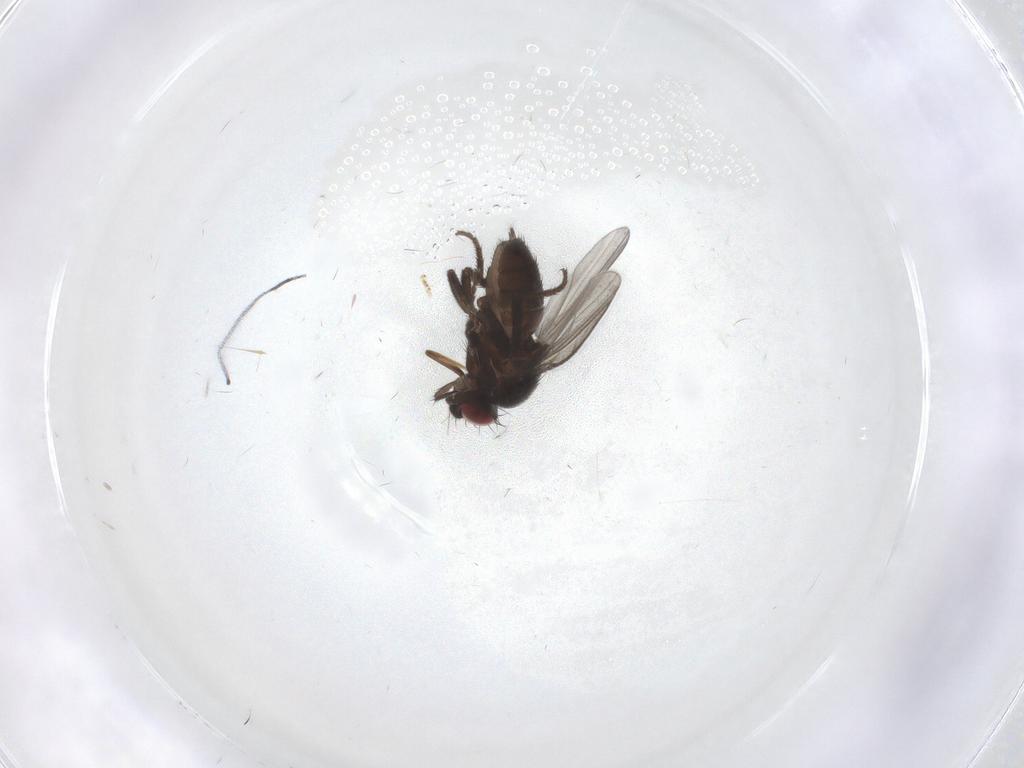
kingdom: Animalia
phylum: Arthropoda
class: Insecta
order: Diptera
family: Milichiidae
